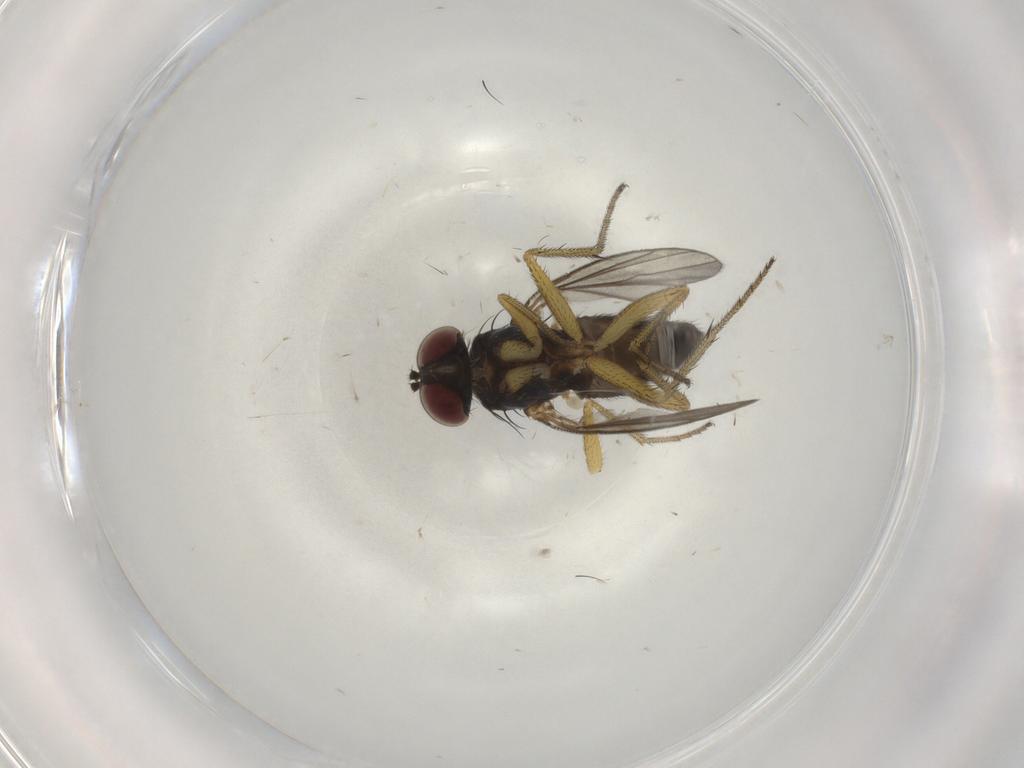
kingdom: Animalia
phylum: Arthropoda
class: Insecta
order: Diptera
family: Dolichopodidae
